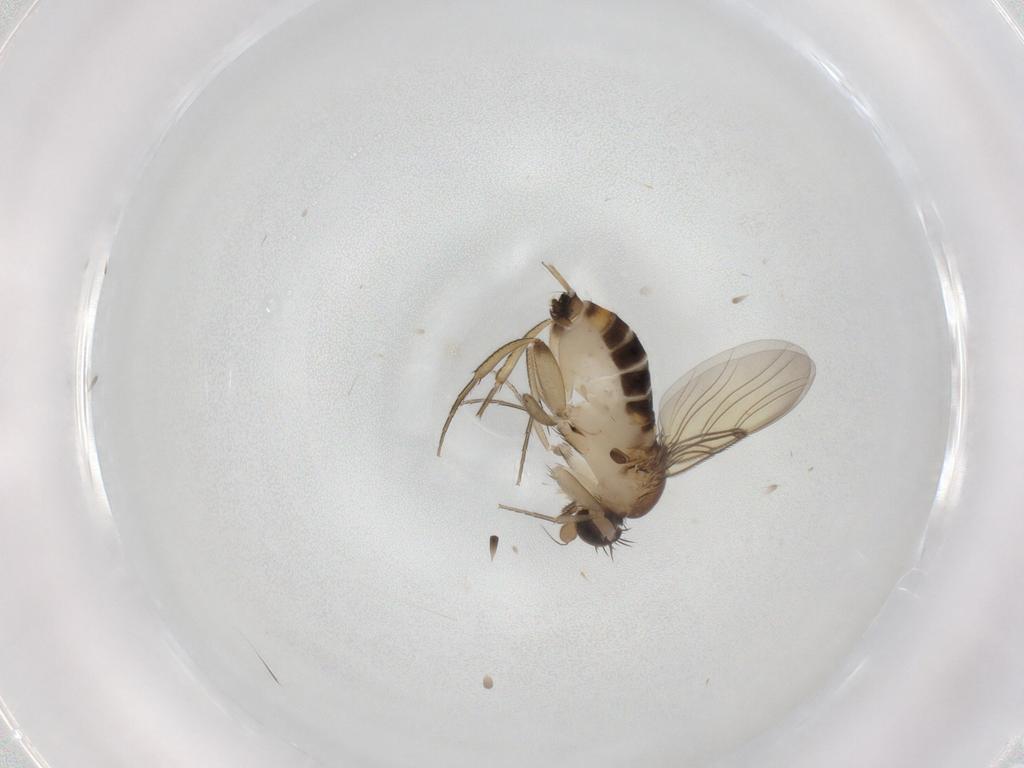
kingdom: Animalia
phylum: Arthropoda
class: Insecta
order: Diptera
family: Phoridae
